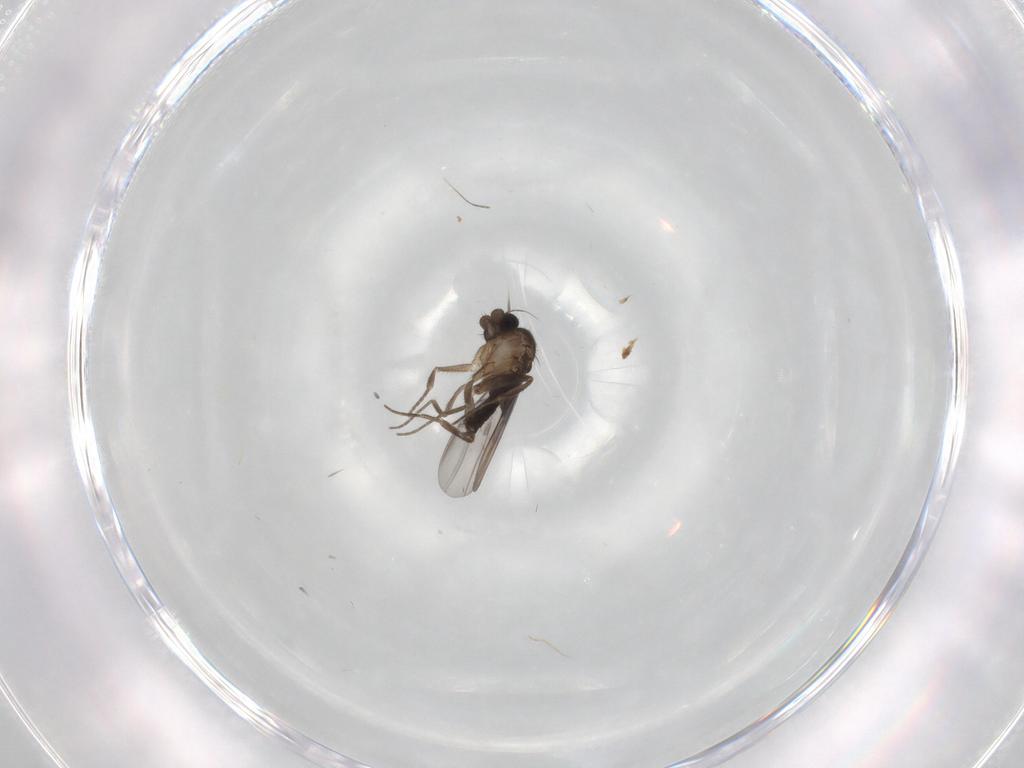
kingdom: Animalia
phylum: Arthropoda
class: Insecta
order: Diptera
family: Phoridae
